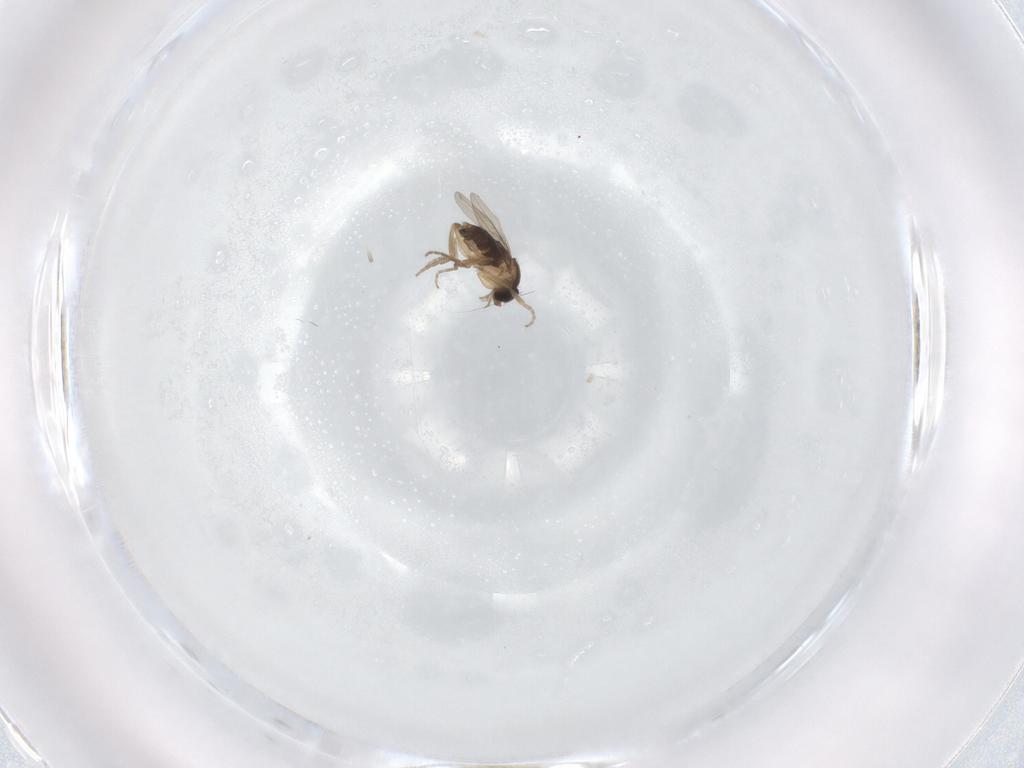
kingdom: Animalia
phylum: Arthropoda
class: Insecta
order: Diptera
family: Phoridae
